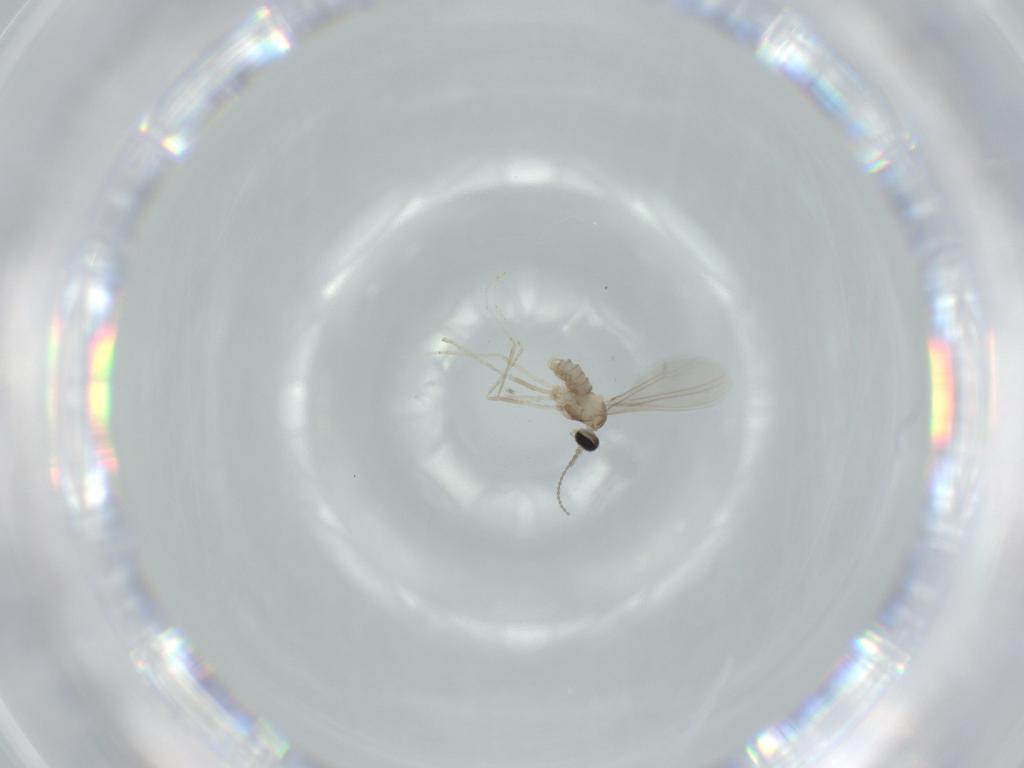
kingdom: Animalia
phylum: Arthropoda
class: Insecta
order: Diptera
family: Cecidomyiidae
